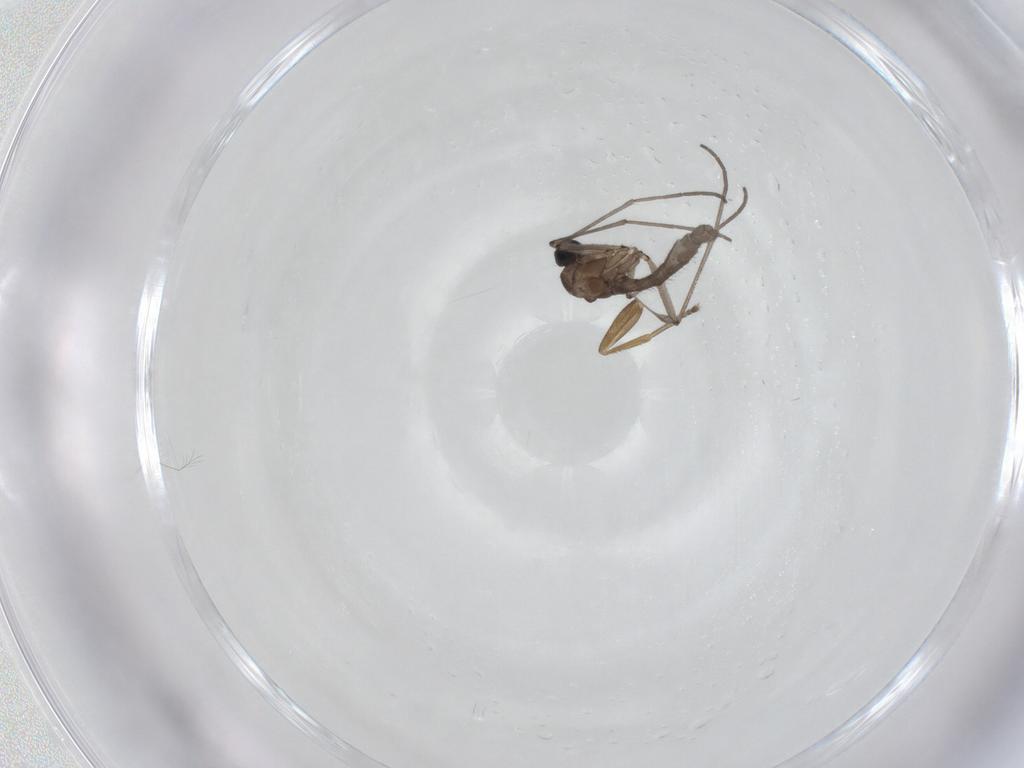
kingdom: Animalia
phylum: Arthropoda
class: Insecta
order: Diptera
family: Sciaridae
